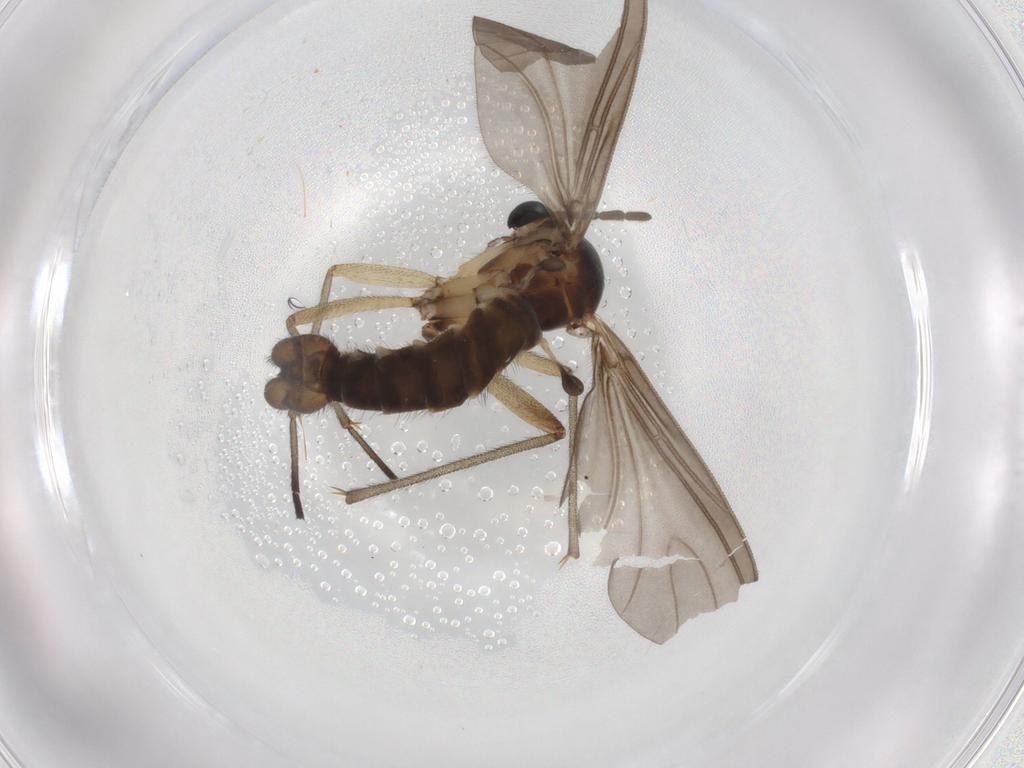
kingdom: Animalia
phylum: Arthropoda
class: Insecta
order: Diptera
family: Sciaridae
